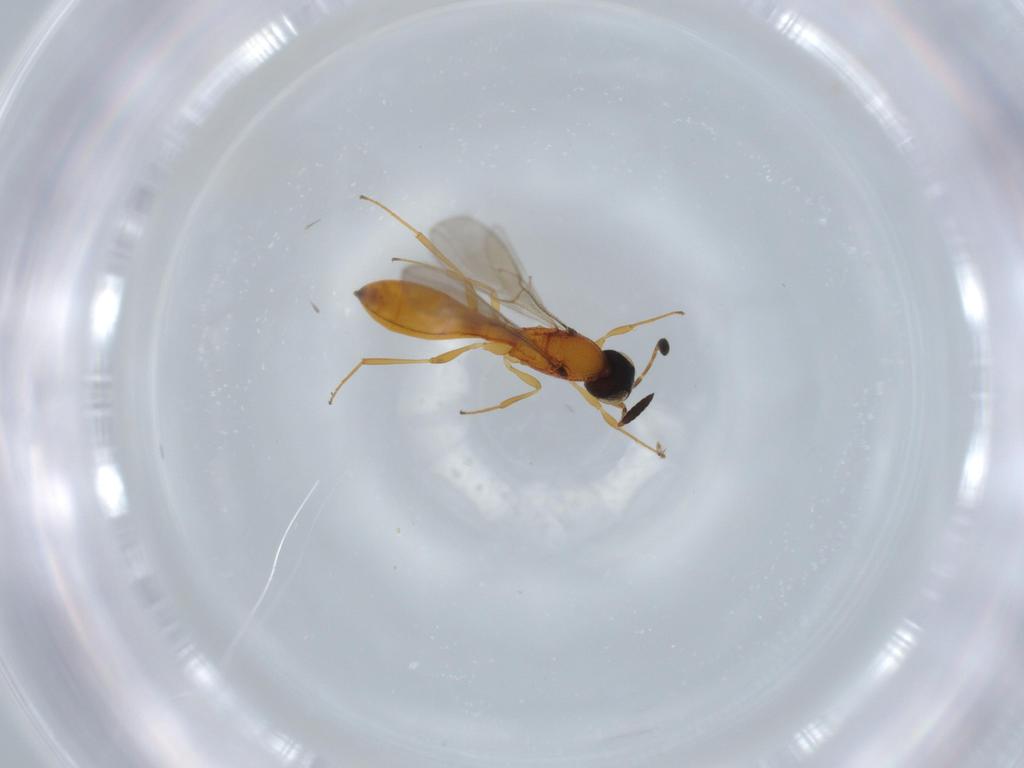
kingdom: Animalia
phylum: Arthropoda
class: Insecta
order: Hymenoptera
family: Scelionidae
